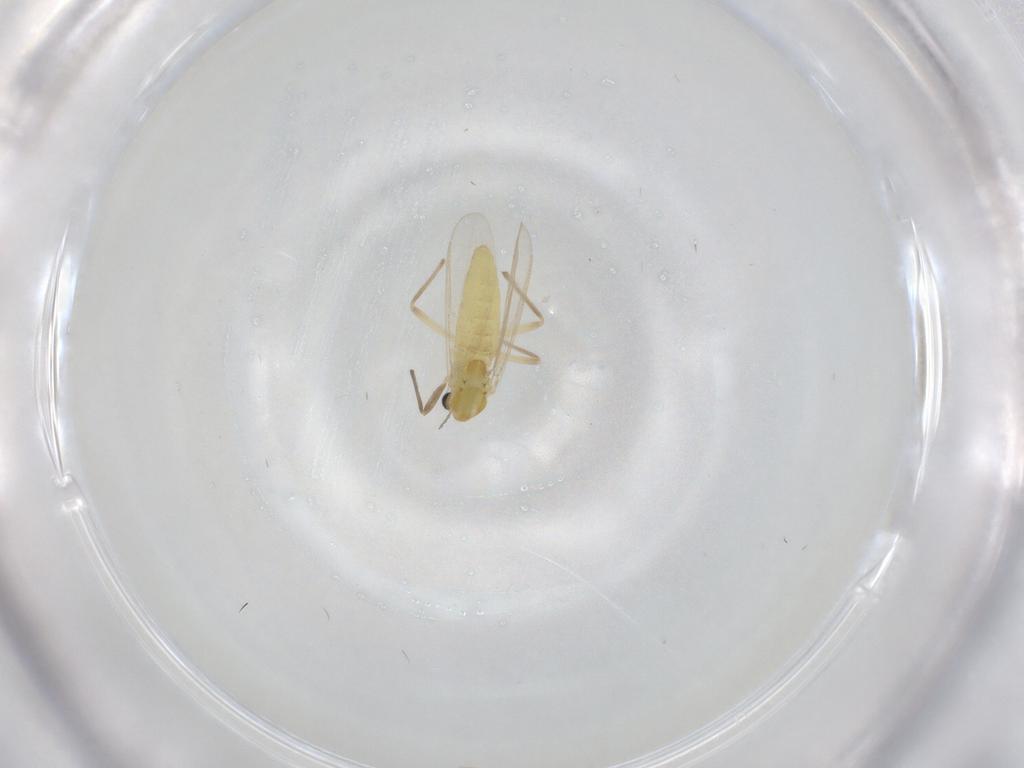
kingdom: Animalia
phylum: Arthropoda
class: Insecta
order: Diptera
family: Chironomidae
